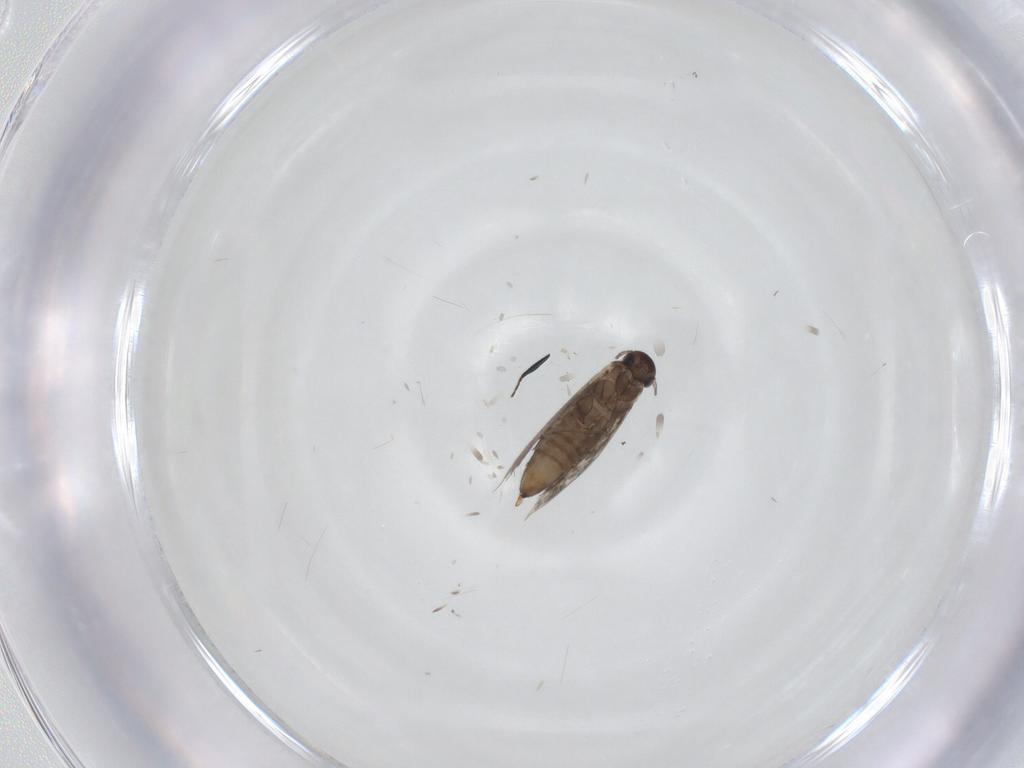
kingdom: Animalia
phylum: Arthropoda
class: Insecta
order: Lepidoptera
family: Heliozelidae
